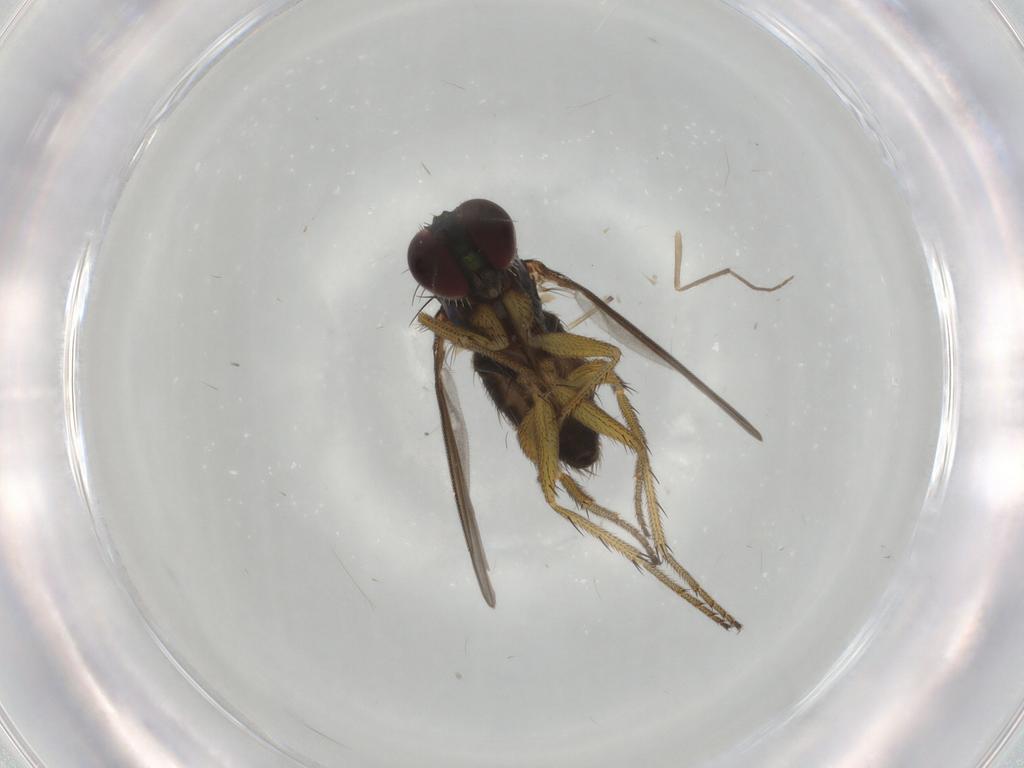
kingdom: Animalia
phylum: Arthropoda
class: Insecta
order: Diptera
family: Dolichopodidae
